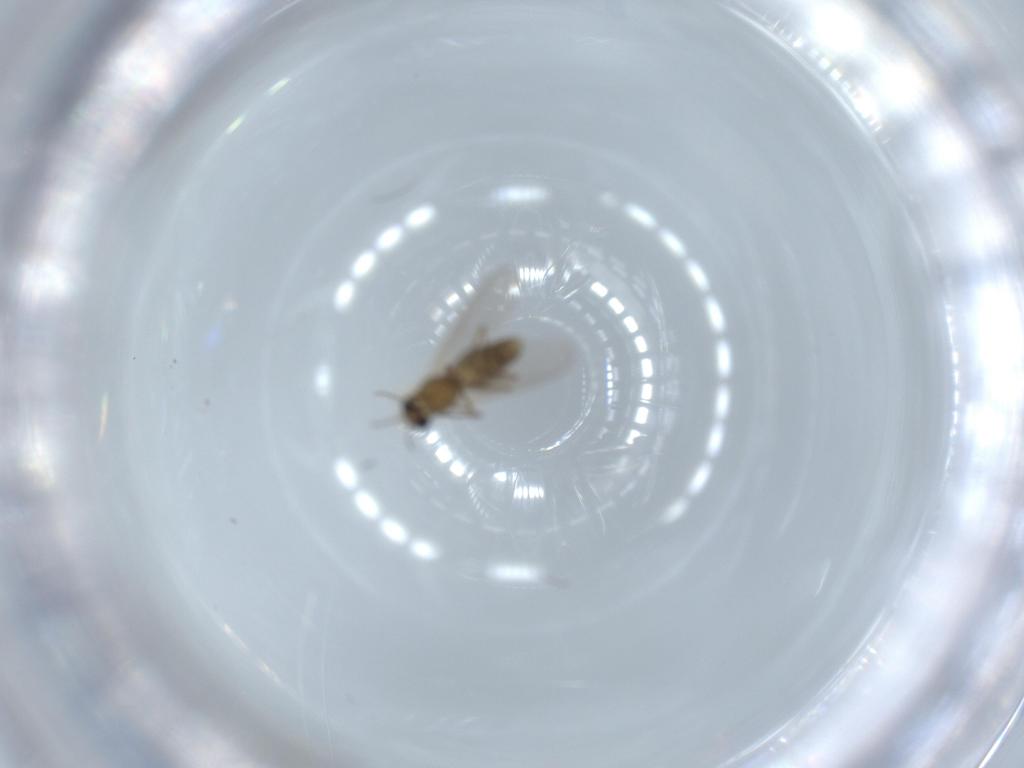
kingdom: Animalia
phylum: Arthropoda
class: Insecta
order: Diptera
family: Chironomidae
